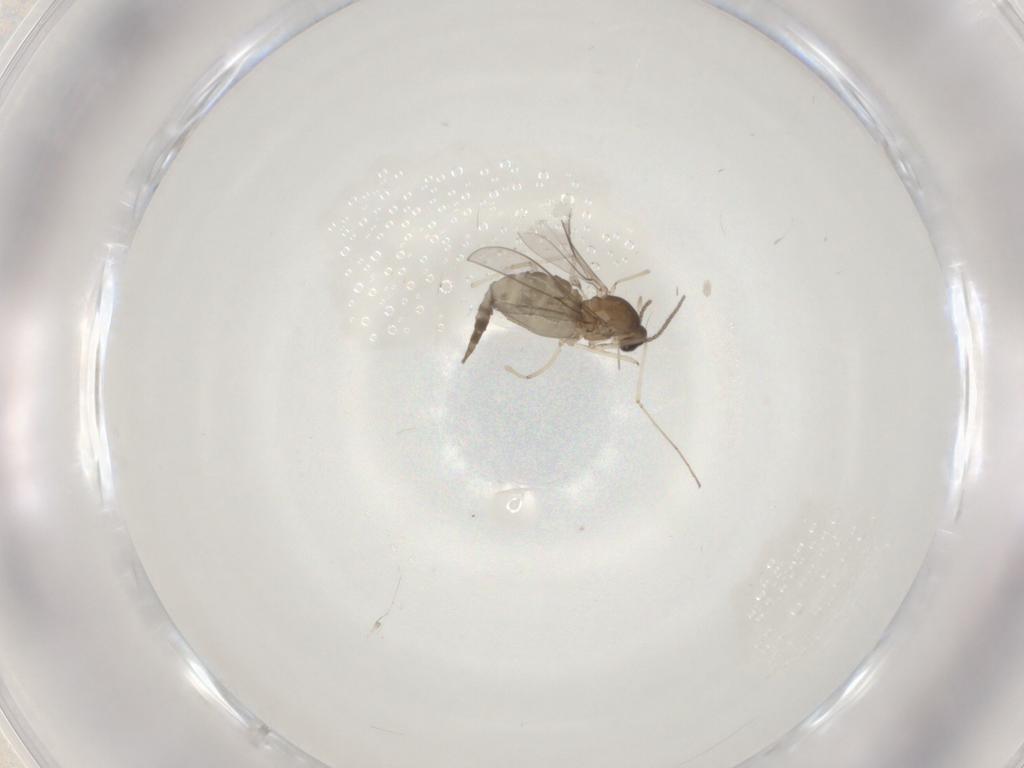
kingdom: Animalia
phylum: Arthropoda
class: Insecta
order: Diptera
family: Cecidomyiidae
